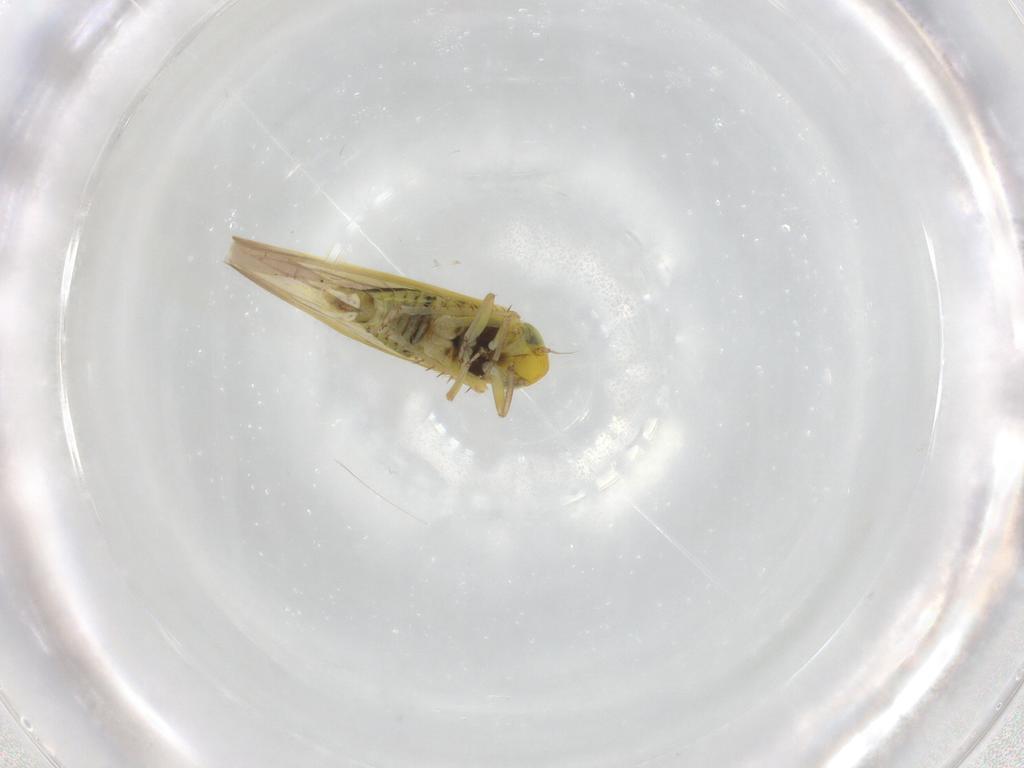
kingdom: Animalia
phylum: Arthropoda
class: Insecta
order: Hemiptera
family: Cicadellidae
